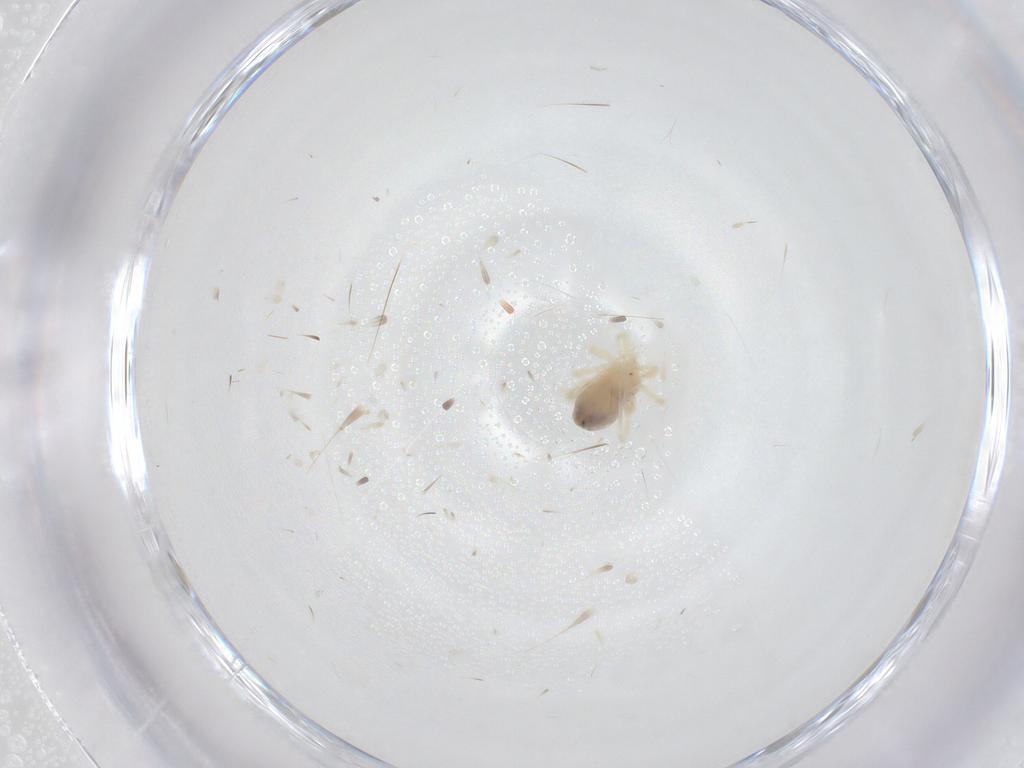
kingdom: Animalia
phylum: Arthropoda
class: Arachnida
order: Trombidiformes
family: Anystidae
